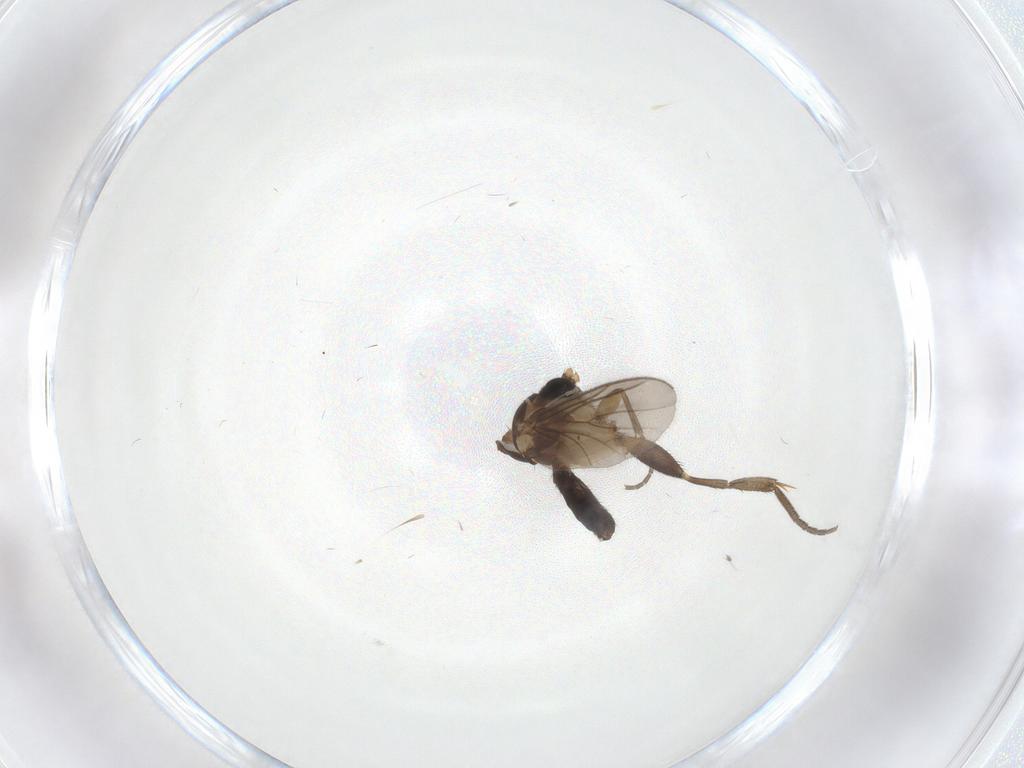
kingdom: Animalia
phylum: Arthropoda
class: Insecta
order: Diptera
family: Mycetophilidae
